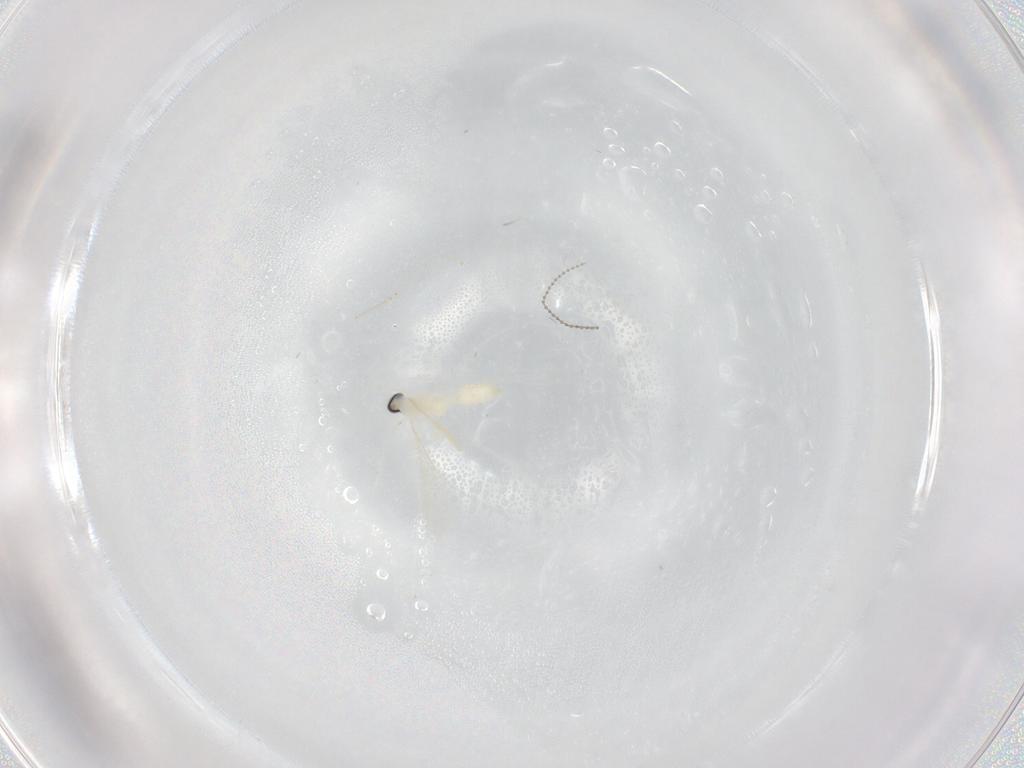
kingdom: Animalia
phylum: Arthropoda
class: Insecta
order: Diptera
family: Cecidomyiidae
